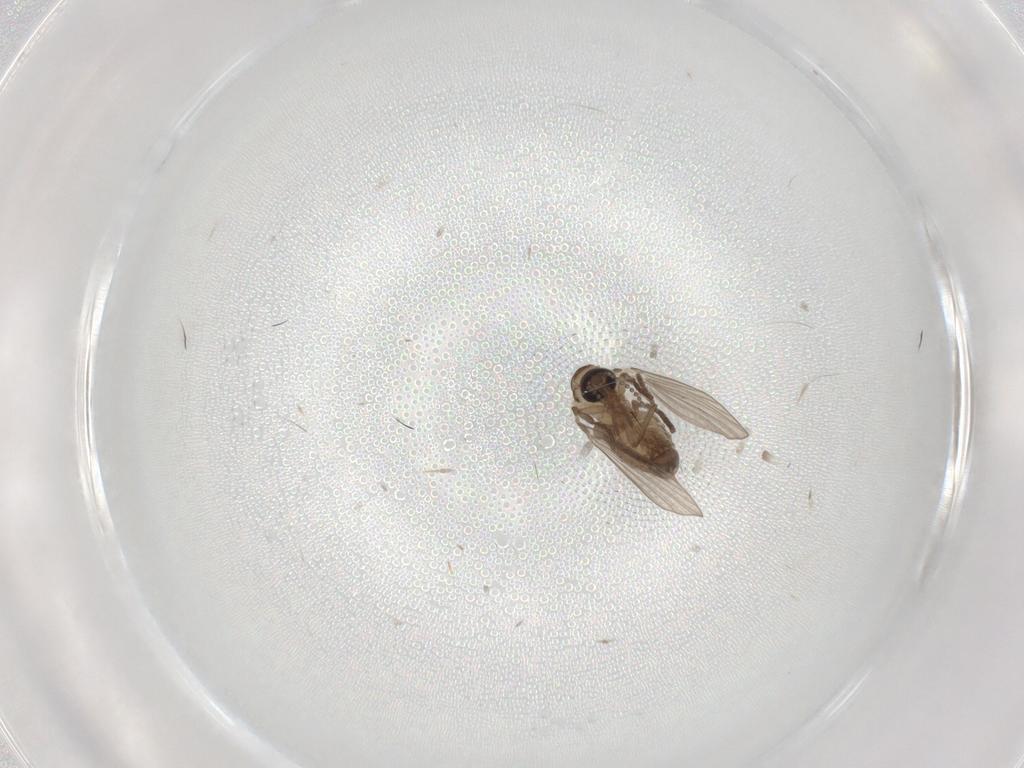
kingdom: Animalia
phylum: Arthropoda
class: Insecta
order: Diptera
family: Psychodidae
